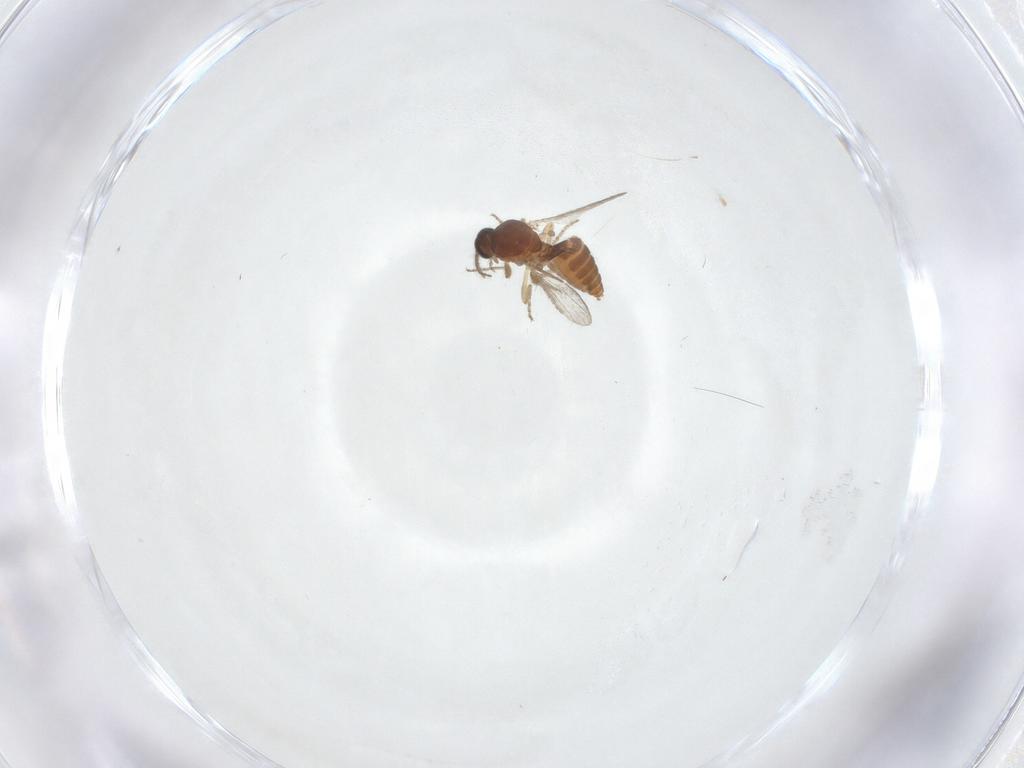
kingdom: Animalia
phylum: Arthropoda
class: Insecta
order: Diptera
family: Ceratopogonidae
